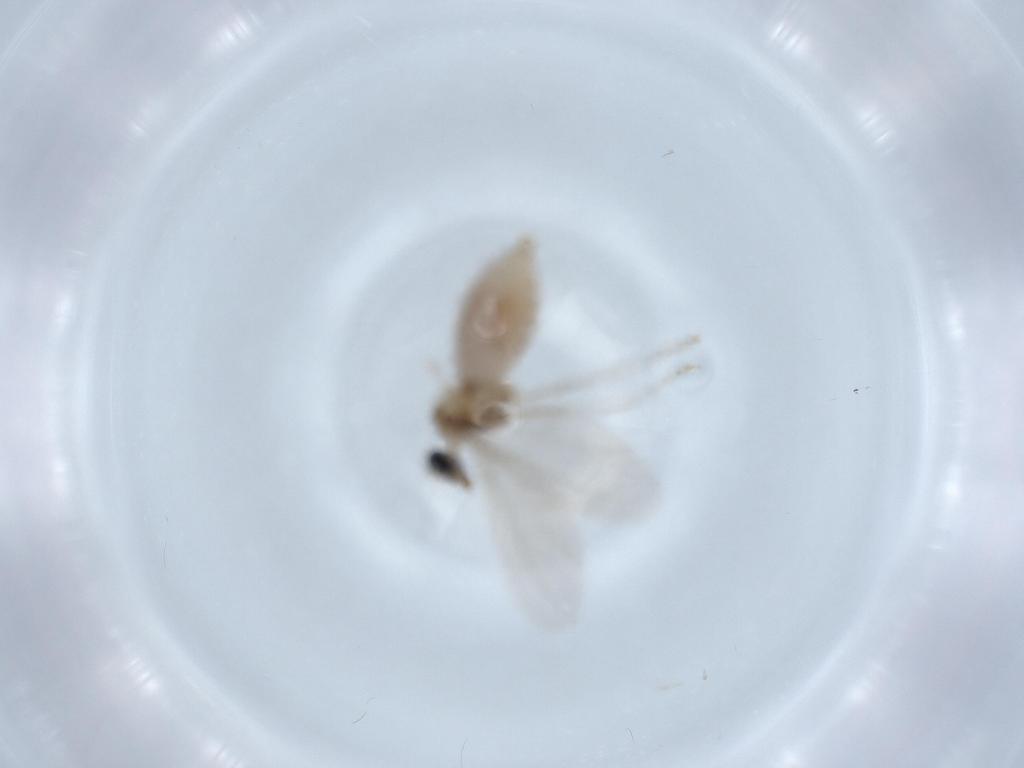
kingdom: Animalia
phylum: Arthropoda
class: Insecta
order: Diptera
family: Cecidomyiidae
